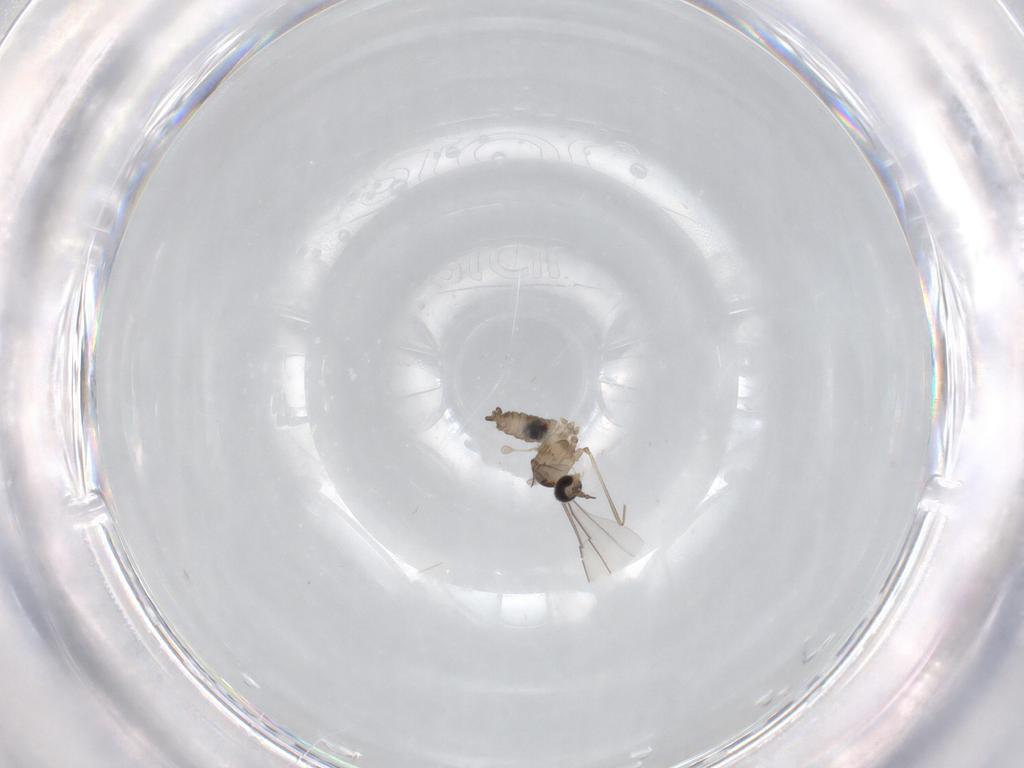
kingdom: Animalia
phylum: Arthropoda
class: Insecta
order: Diptera
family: Cecidomyiidae
